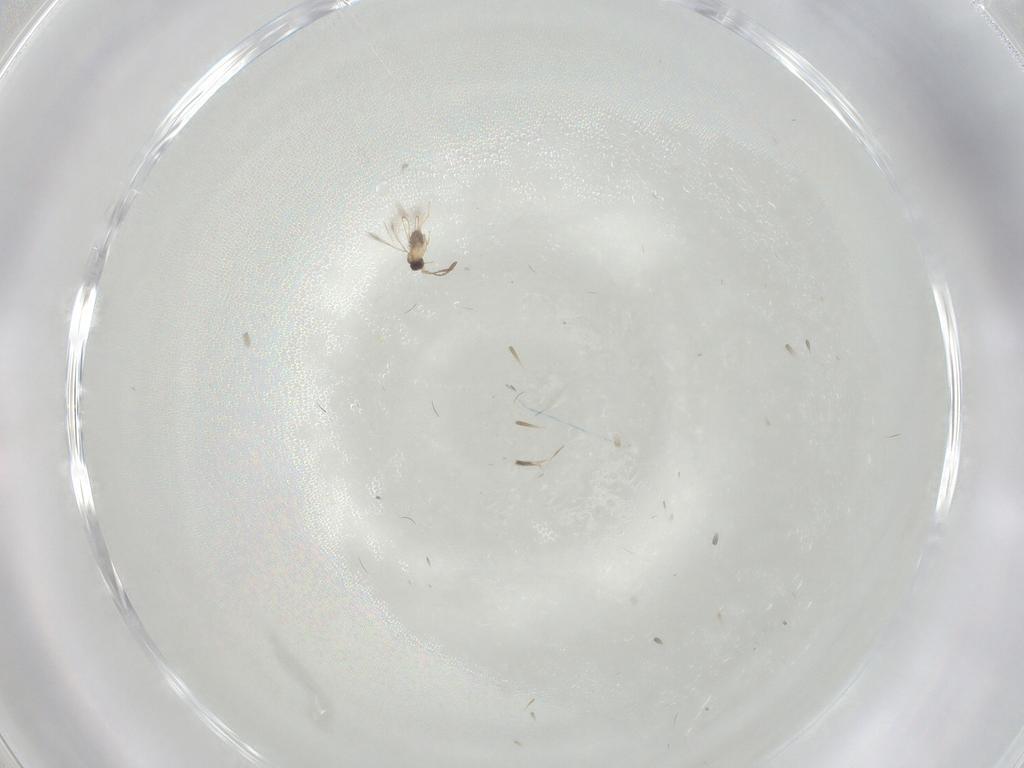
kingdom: Animalia
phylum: Arthropoda
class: Insecta
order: Hymenoptera
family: Formicidae
